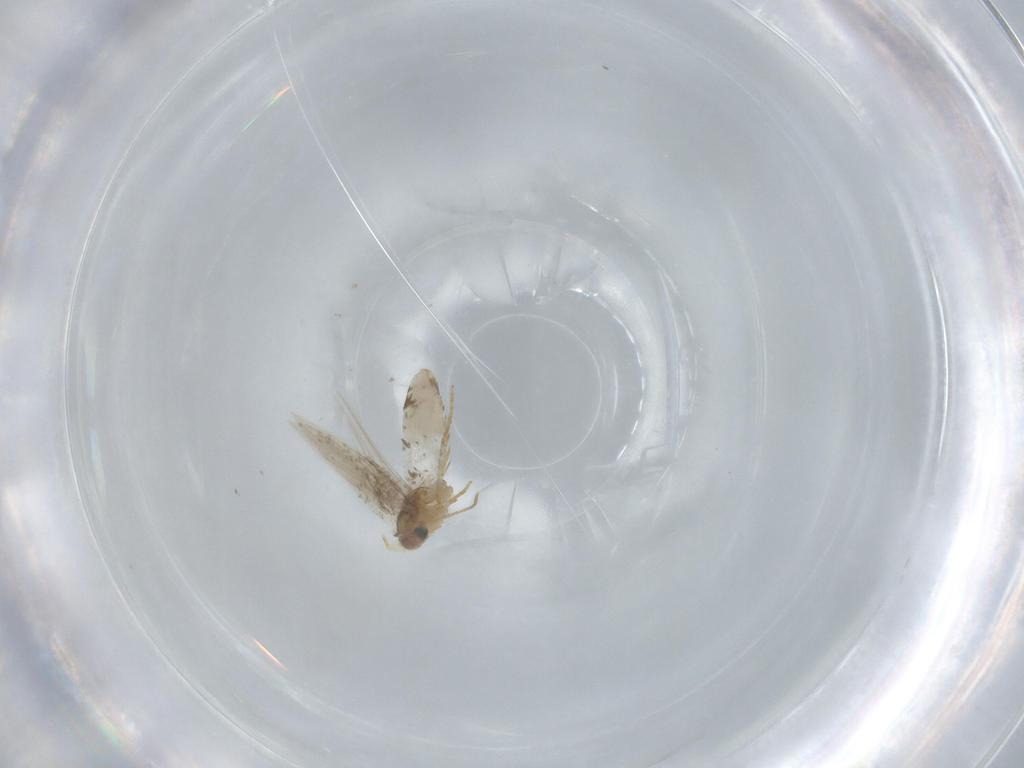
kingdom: Animalia
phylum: Arthropoda
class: Insecta
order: Lepidoptera
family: Nepticulidae
